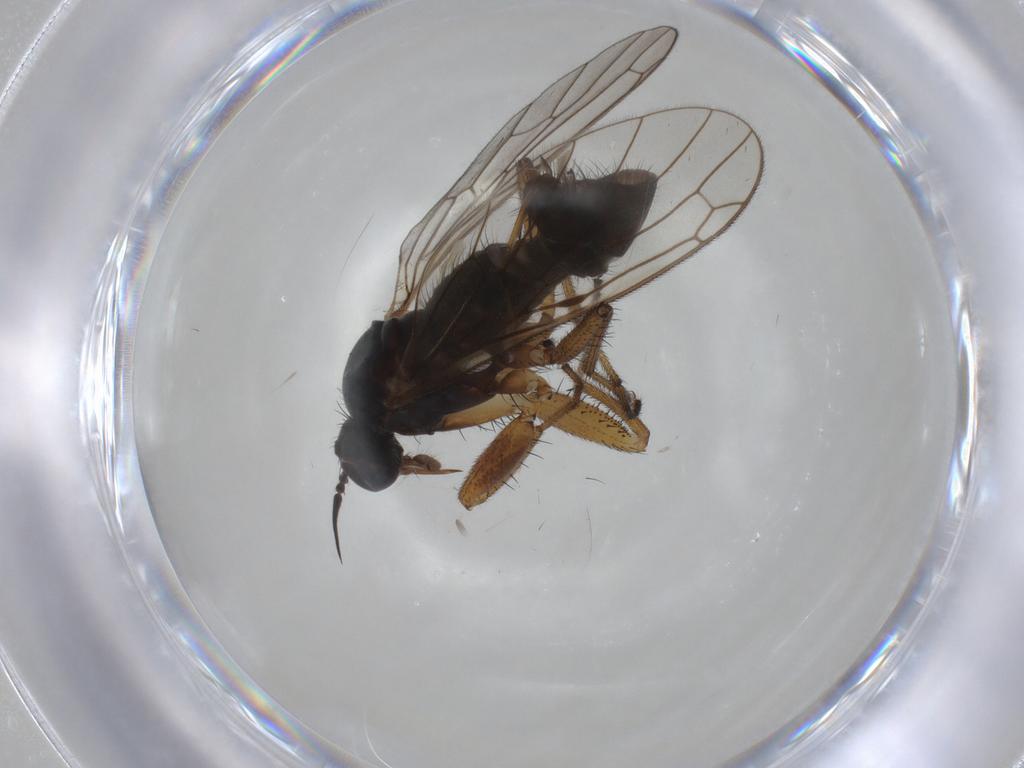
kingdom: Animalia
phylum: Arthropoda
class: Insecta
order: Diptera
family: Empididae
